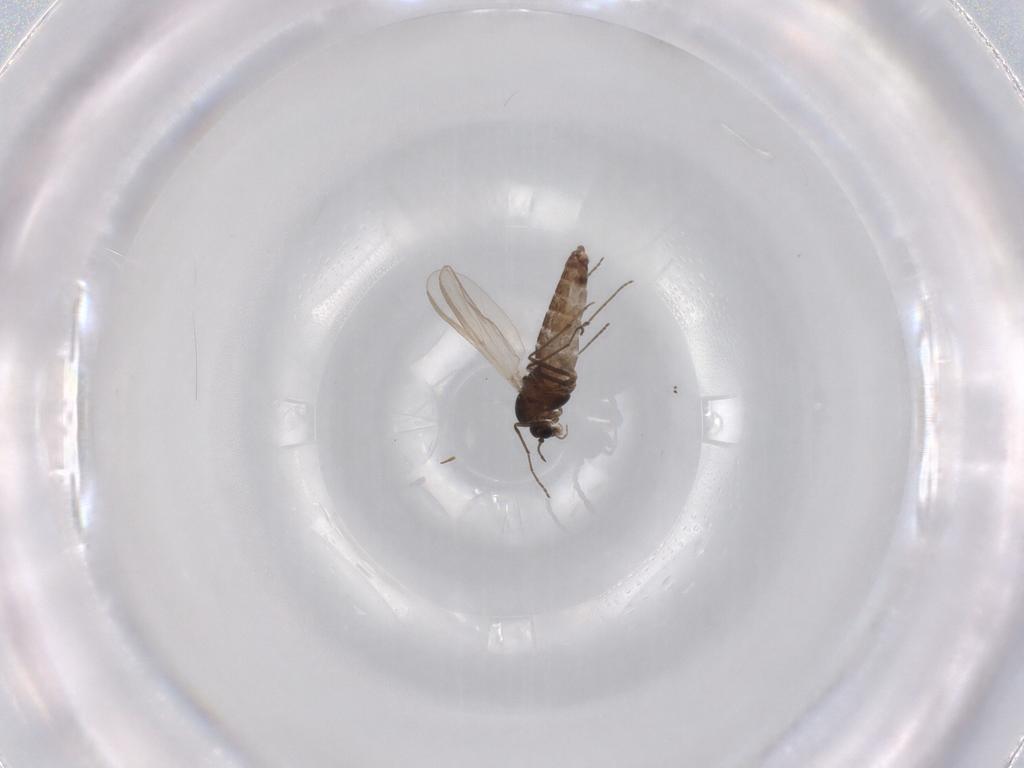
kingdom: Animalia
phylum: Arthropoda
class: Insecta
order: Diptera
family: Chironomidae
